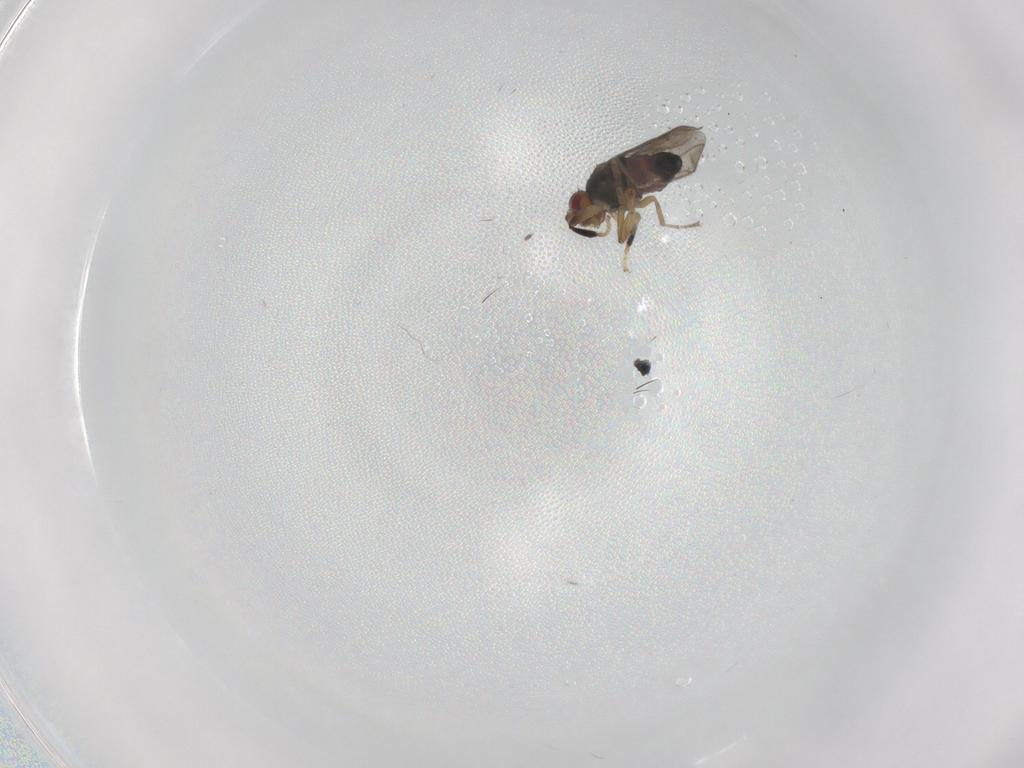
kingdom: Animalia
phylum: Arthropoda
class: Insecta
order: Diptera
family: Sphaeroceridae
